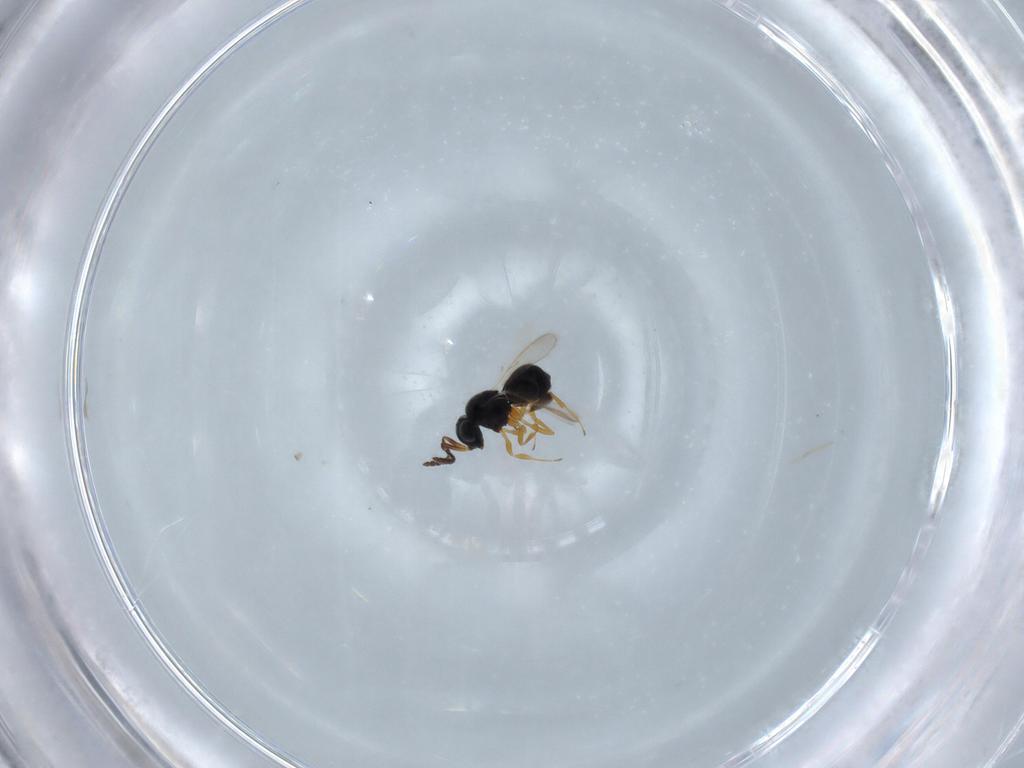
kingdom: Animalia
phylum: Arthropoda
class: Insecta
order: Hymenoptera
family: Scelionidae
